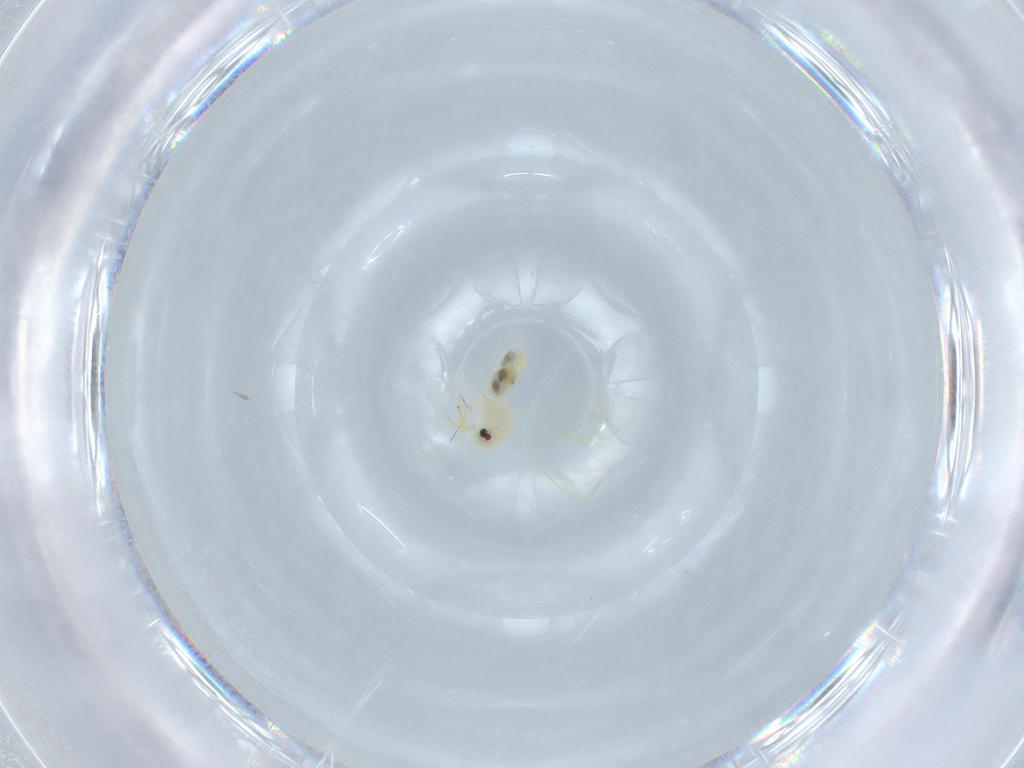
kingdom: Animalia
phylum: Arthropoda
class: Insecta
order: Hemiptera
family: Aleyrodidae
